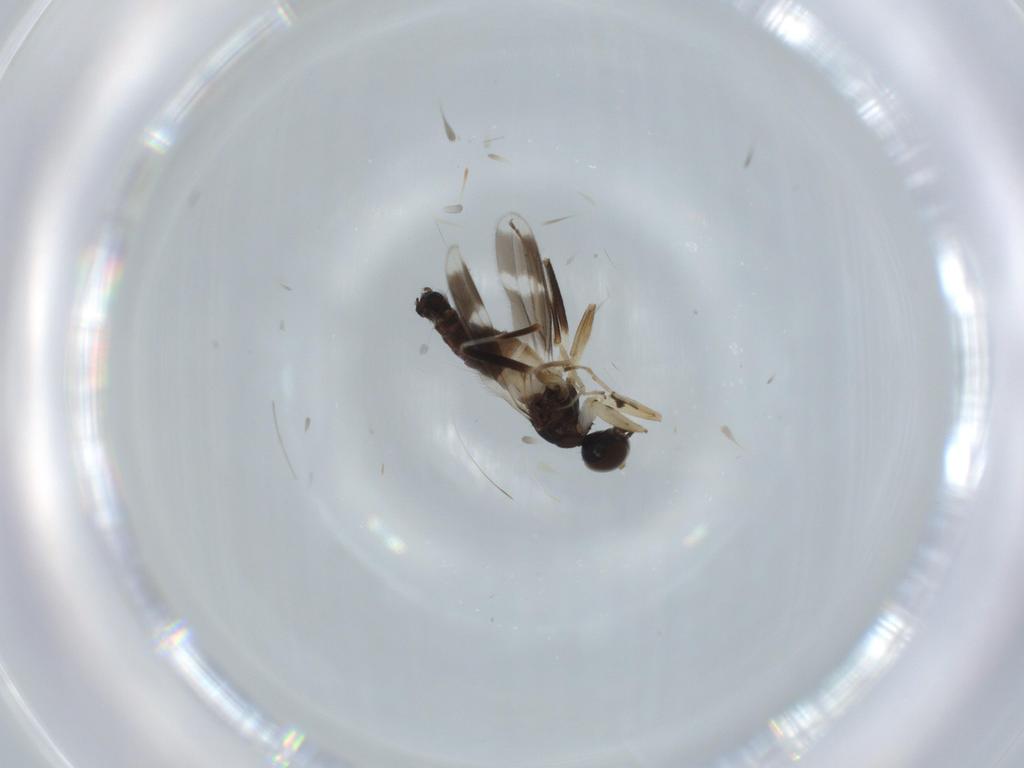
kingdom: Animalia
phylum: Arthropoda
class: Insecta
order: Diptera
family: Hybotidae
